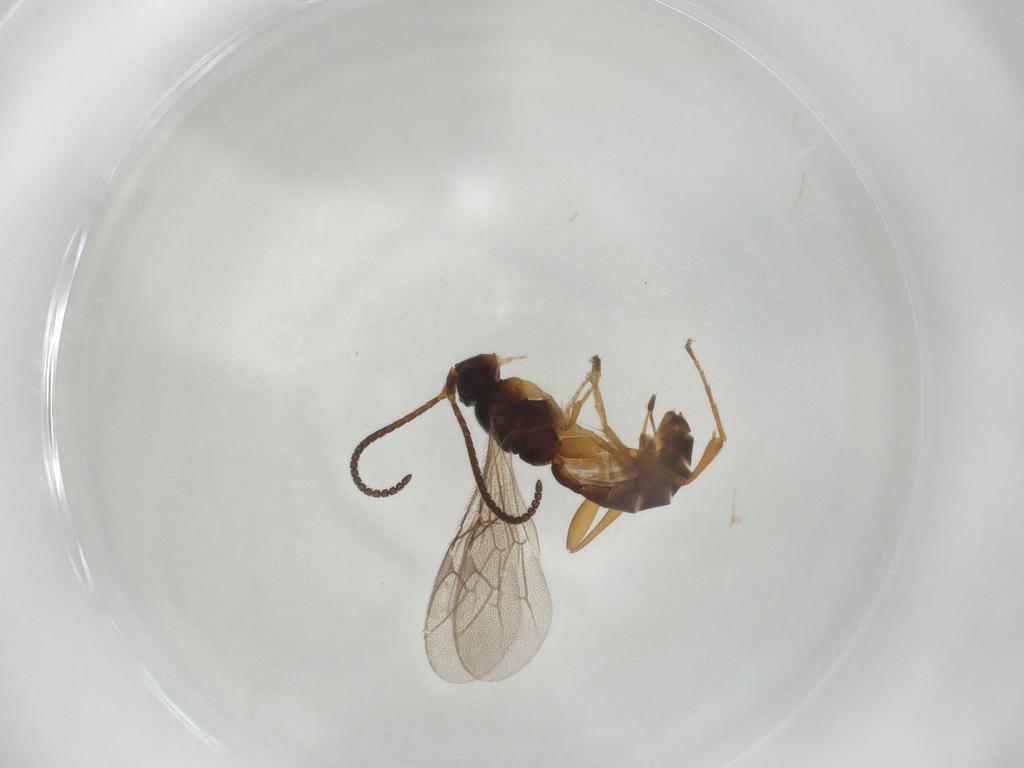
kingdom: Animalia
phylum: Arthropoda
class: Insecta
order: Hymenoptera
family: Ichneumonidae
